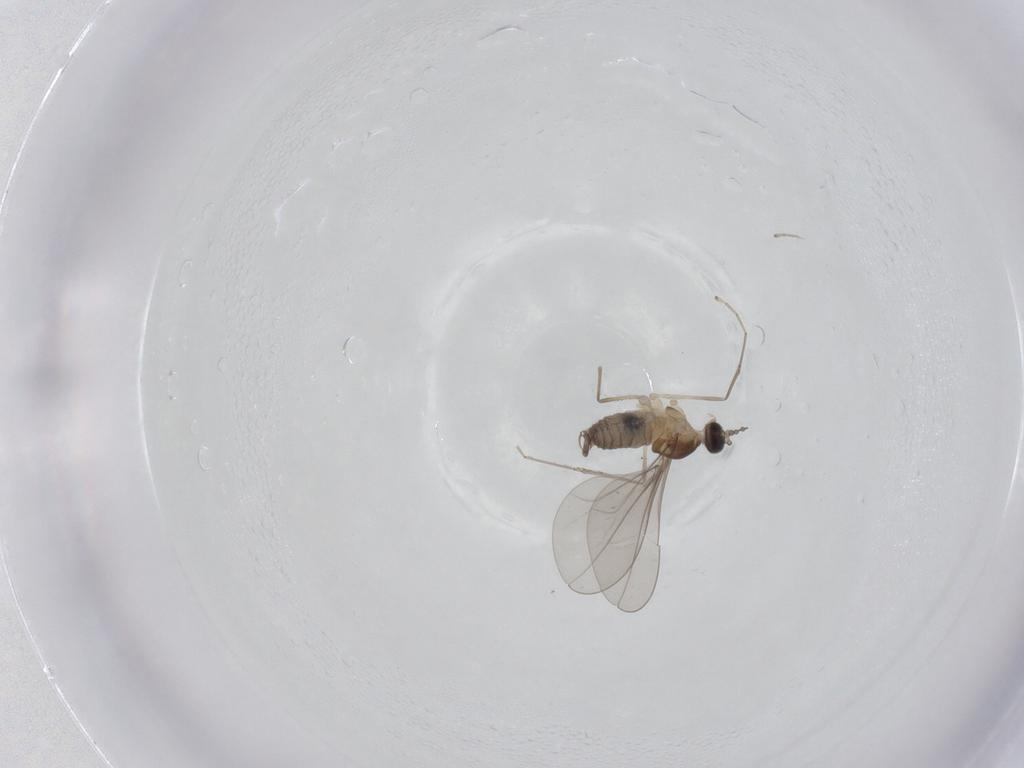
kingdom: Animalia
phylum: Arthropoda
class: Insecta
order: Diptera
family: Cecidomyiidae
